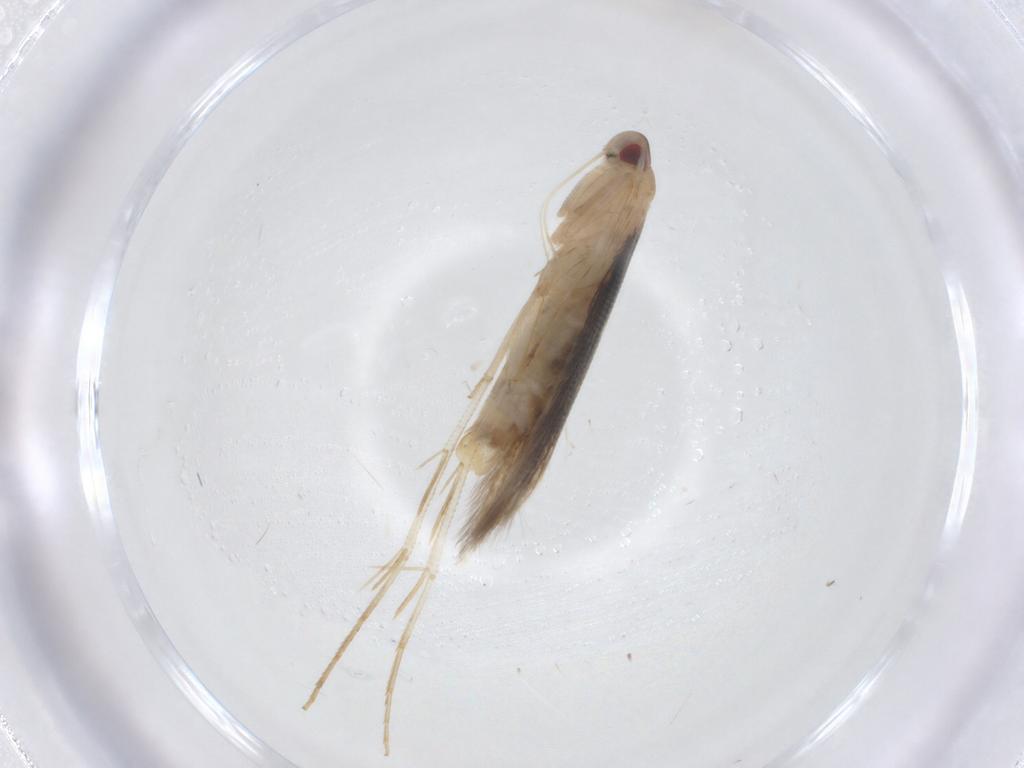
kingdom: Animalia
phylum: Arthropoda
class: Insecta
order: Lepidoptera
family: Cosmopterigidae
